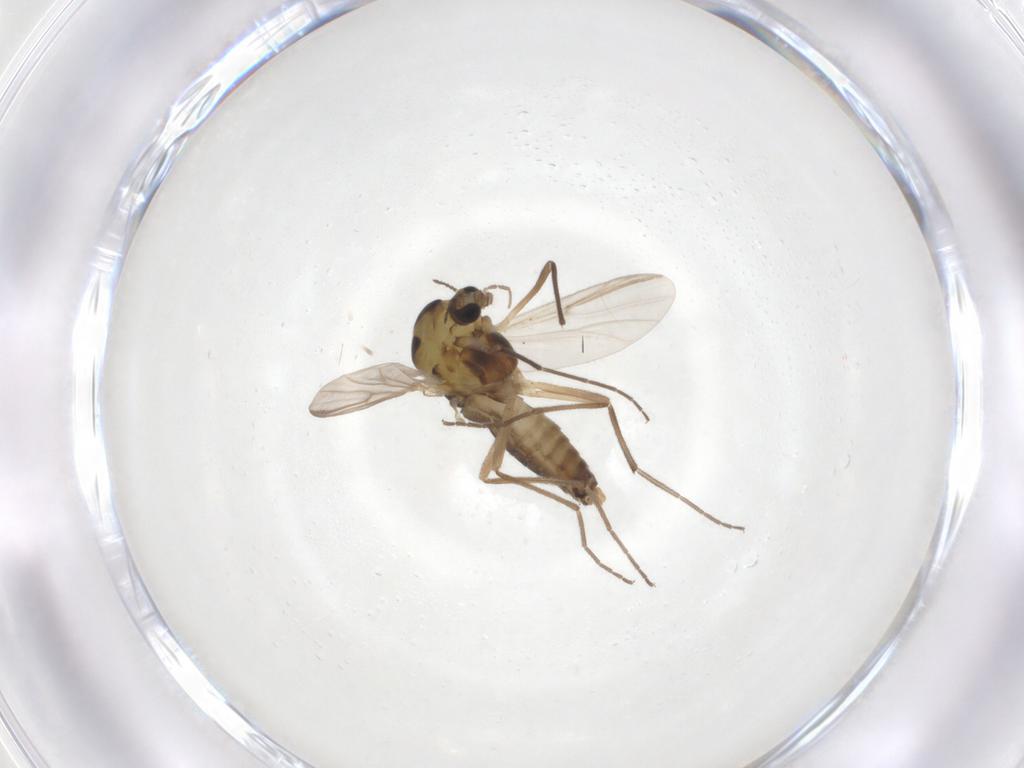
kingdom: Animalia
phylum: Arthropoda
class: Insecta
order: Diptera
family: Chironomidae
